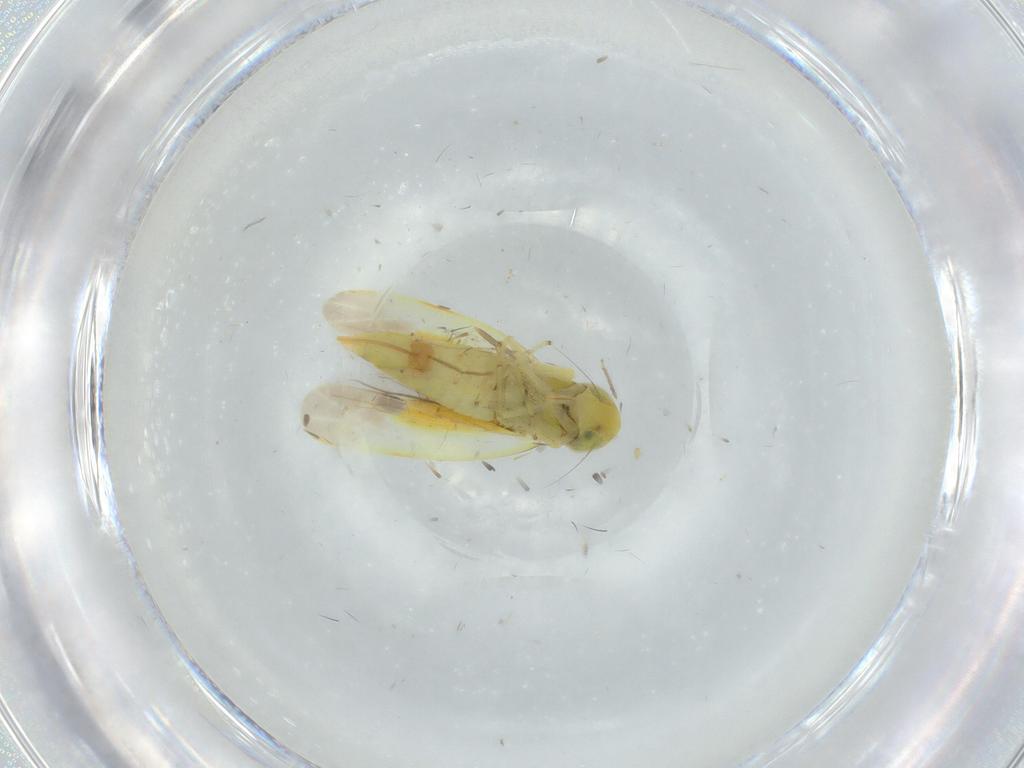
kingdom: Animalia
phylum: Arthropoda
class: Insecta
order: Hemiptera
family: Cicadellidae
